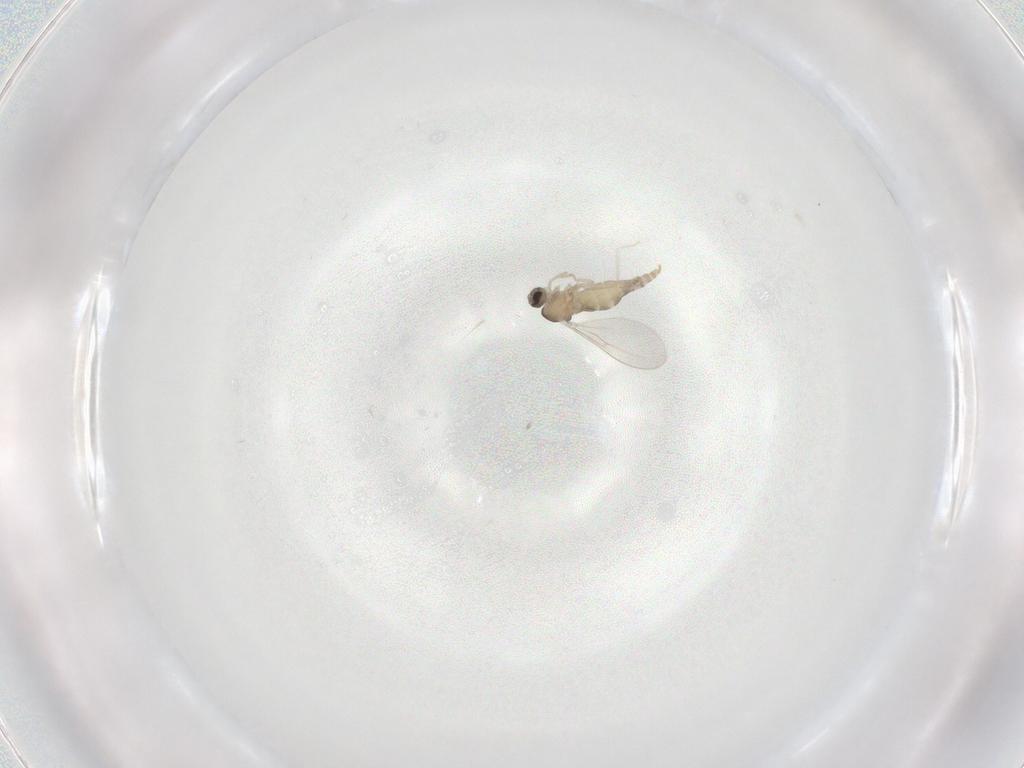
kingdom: Animalia
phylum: Arthropoda
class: Insecta
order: Diptera
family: Cecidomyiidae
